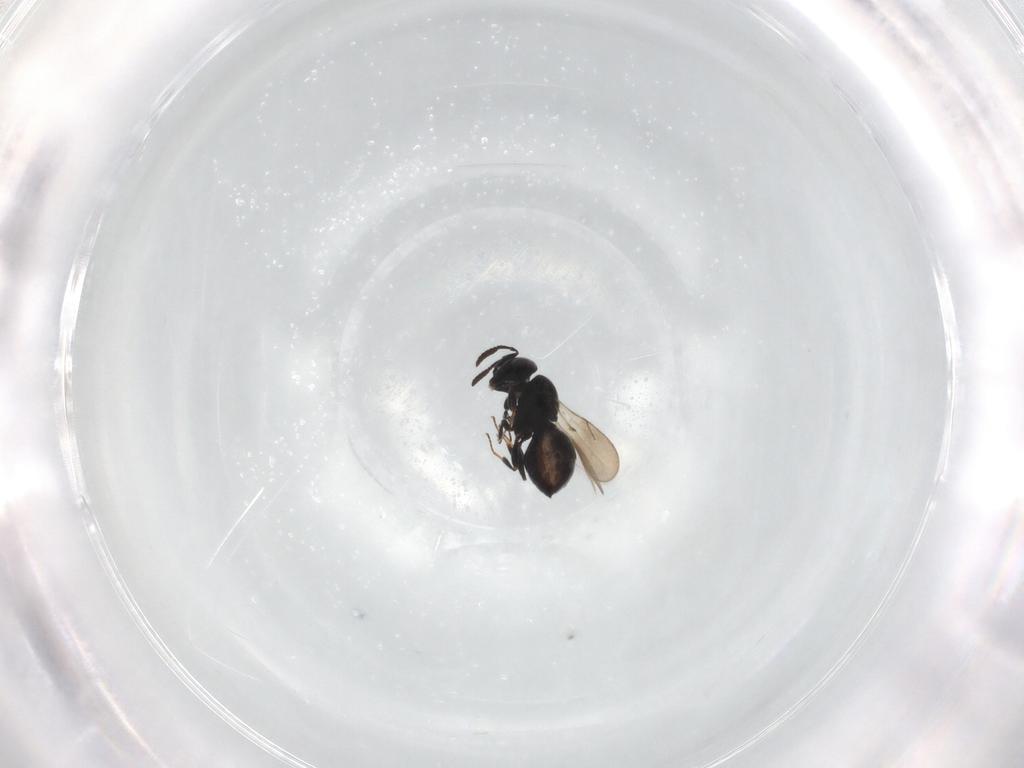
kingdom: Animalia
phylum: Arthropoda
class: Insecta
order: Hymenoptera
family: Scelionidae
